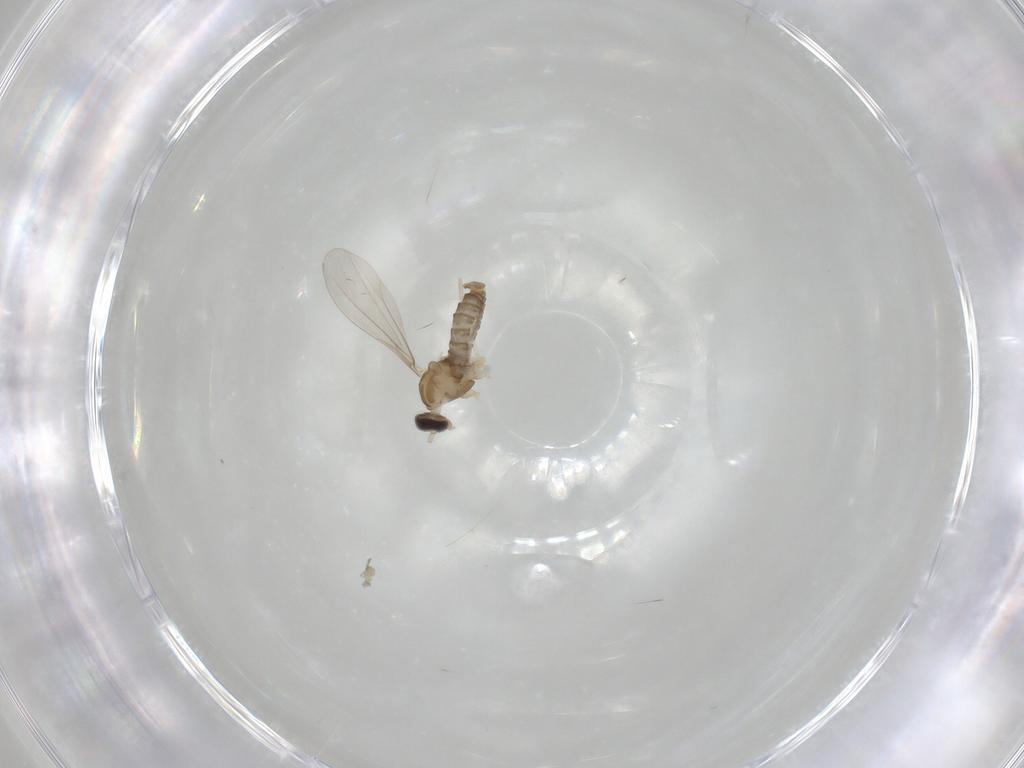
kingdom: Animalia
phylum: Arthropoda
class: Insecta
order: Diptera
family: Cecidomyiidae
